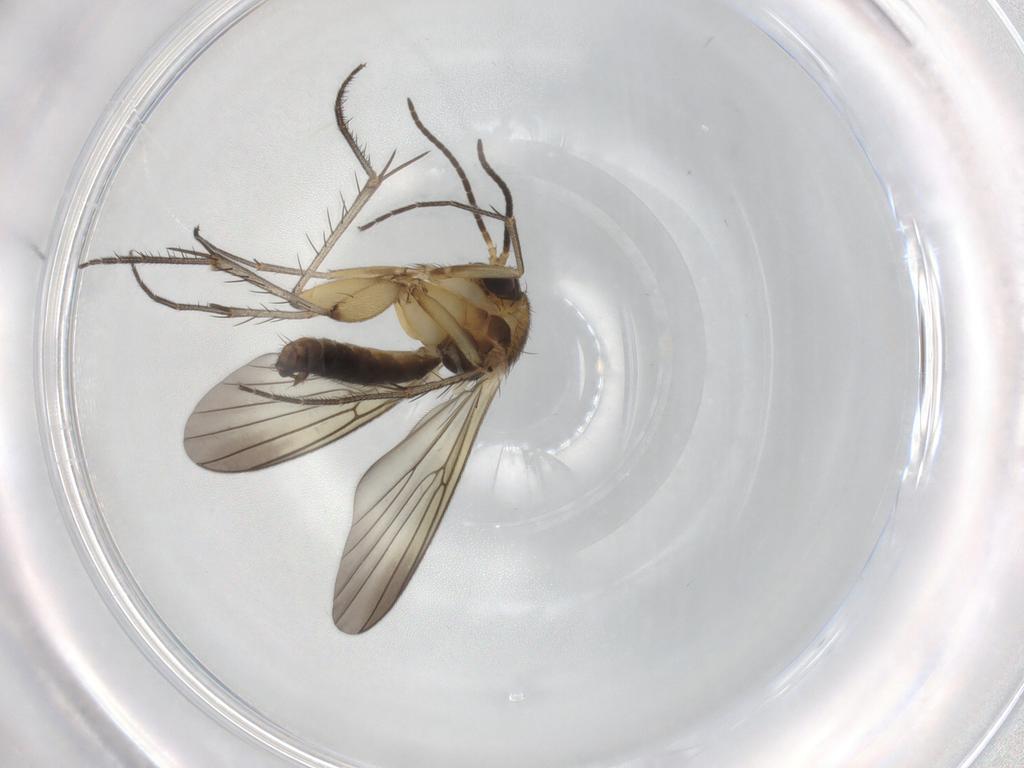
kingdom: Animalia
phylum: Arthropoda
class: Insecta
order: Diptera
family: Mycetophilidae
